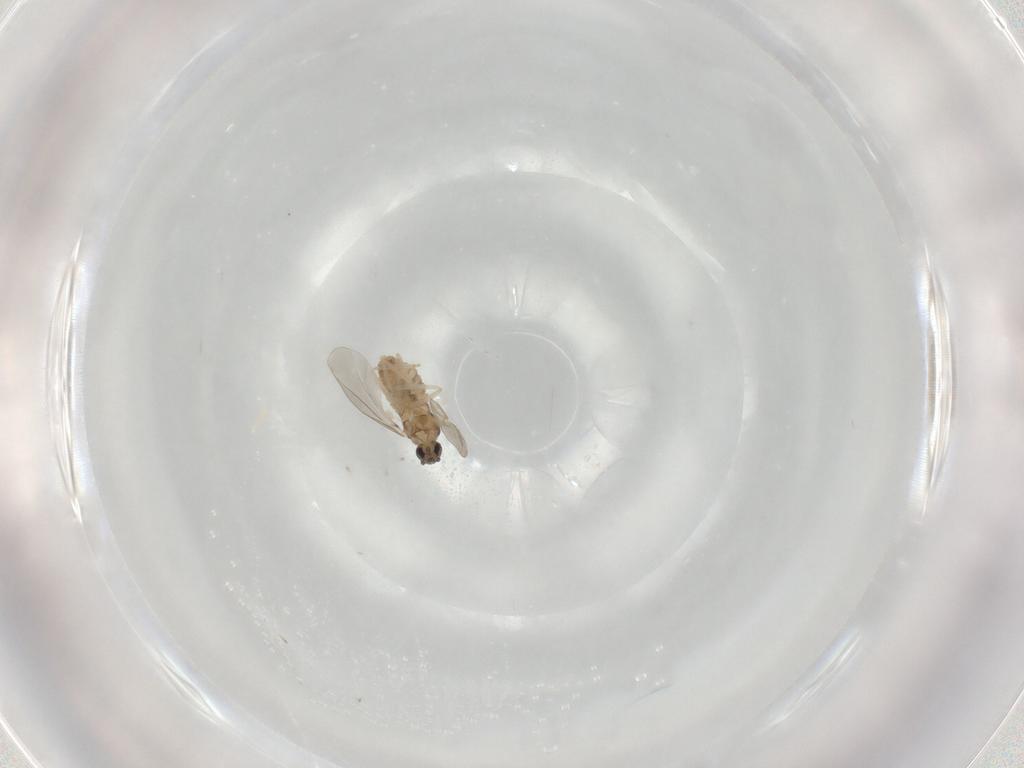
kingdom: Animalia
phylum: Arthropoda
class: Insecta
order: Diptera
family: Cecidomyiidae
